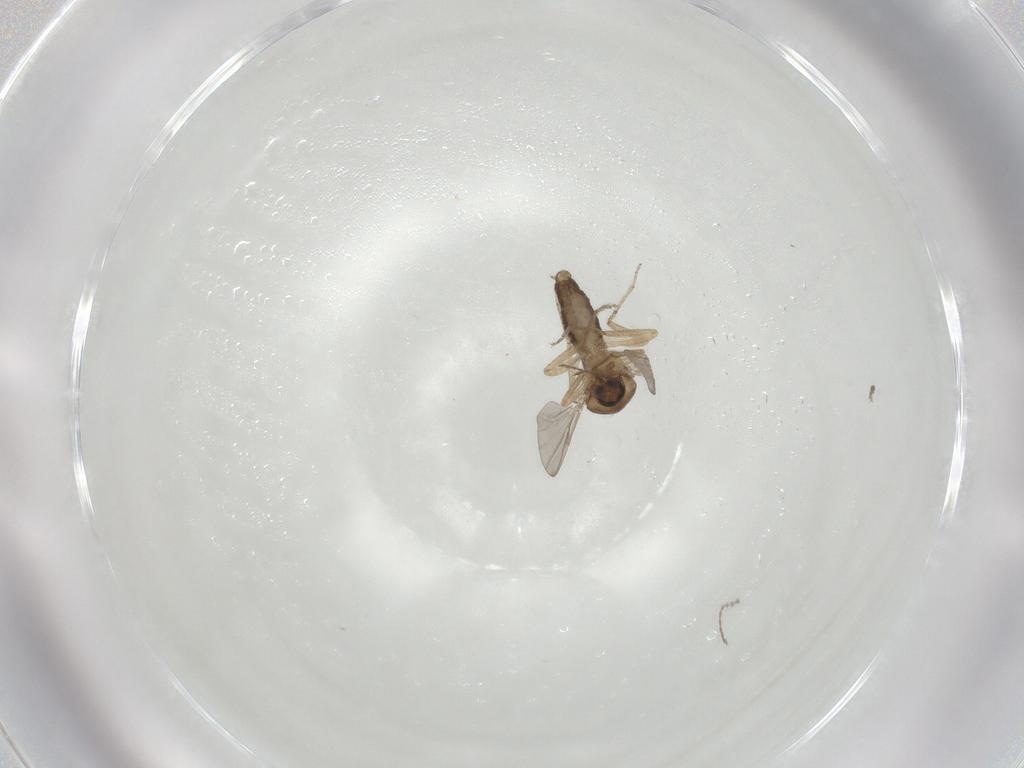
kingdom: Animalia
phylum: Arthropoda
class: Insecta
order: Diptera
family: Ceratopogonidae
